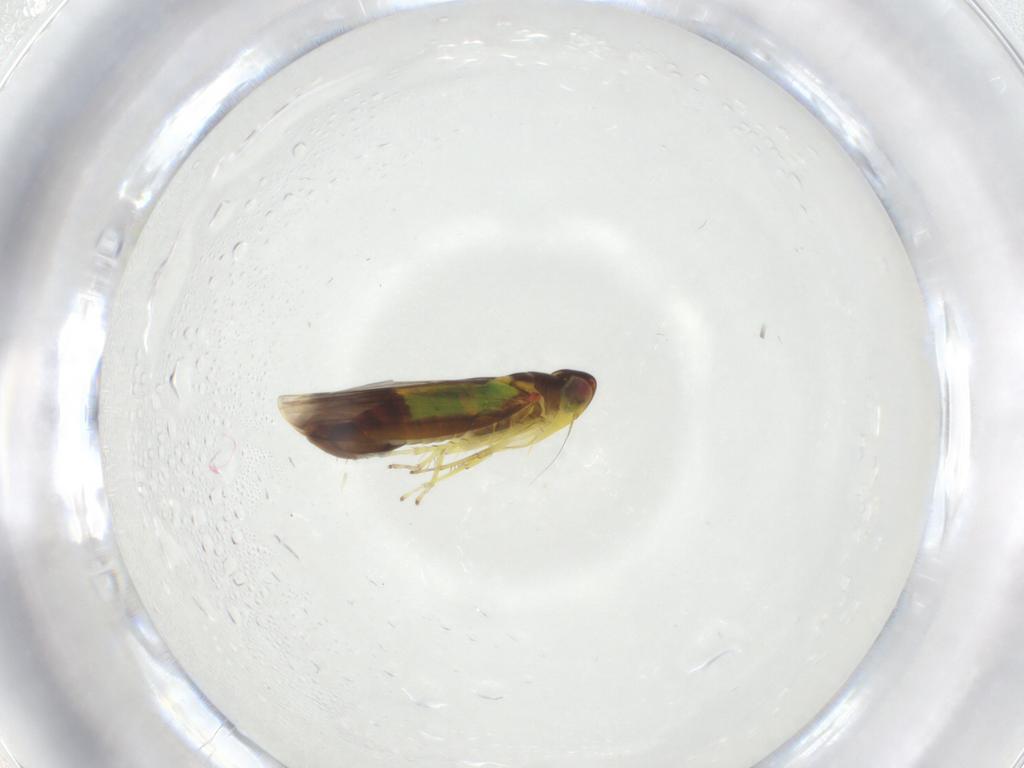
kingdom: Animalia
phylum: Arthropoda
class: Insecta
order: Hemiptera
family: Cicadellidae
